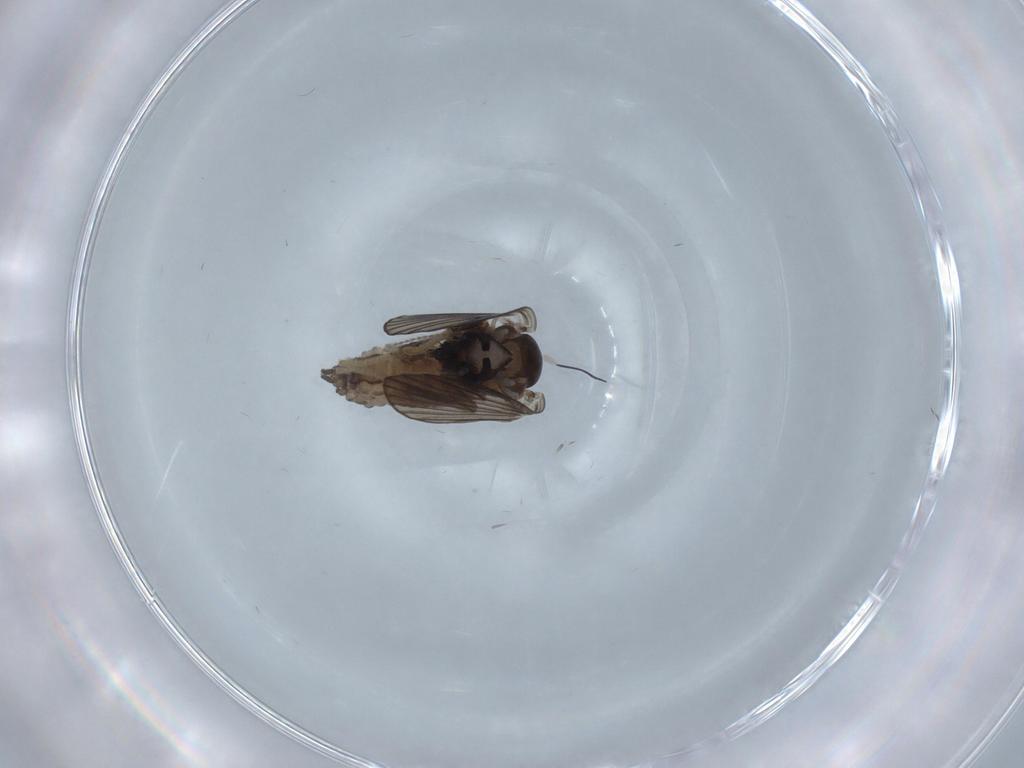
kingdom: Animalia
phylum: Arthropoda
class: Insecta
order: Diptera
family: Psychodidae
